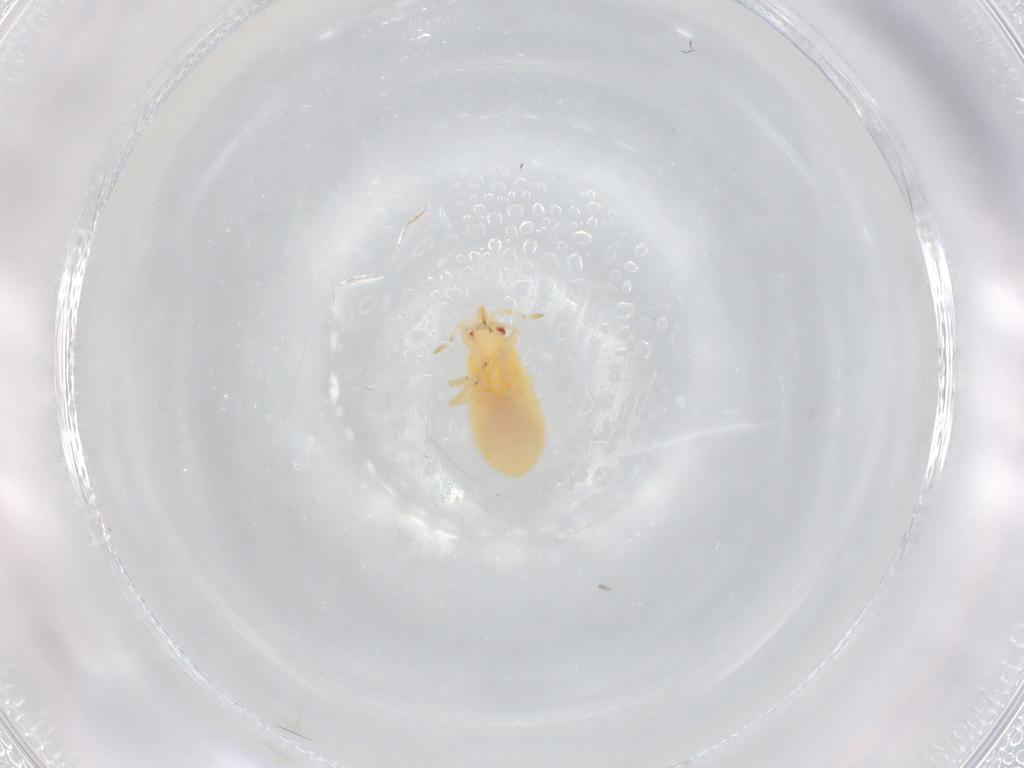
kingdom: Animalia
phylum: Arthropoda
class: Insecta
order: Hemiptera
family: Anthocoridae
